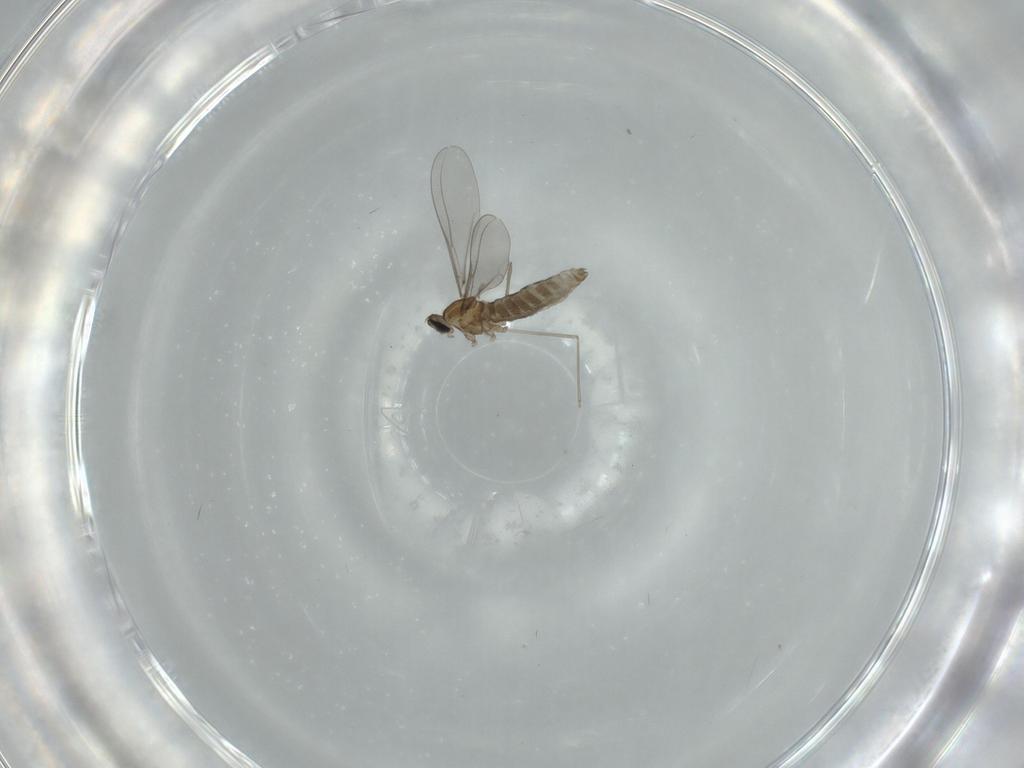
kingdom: Animalia
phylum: Arthropoda
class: Insecta
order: Diptera
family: Cecidomyiidae
